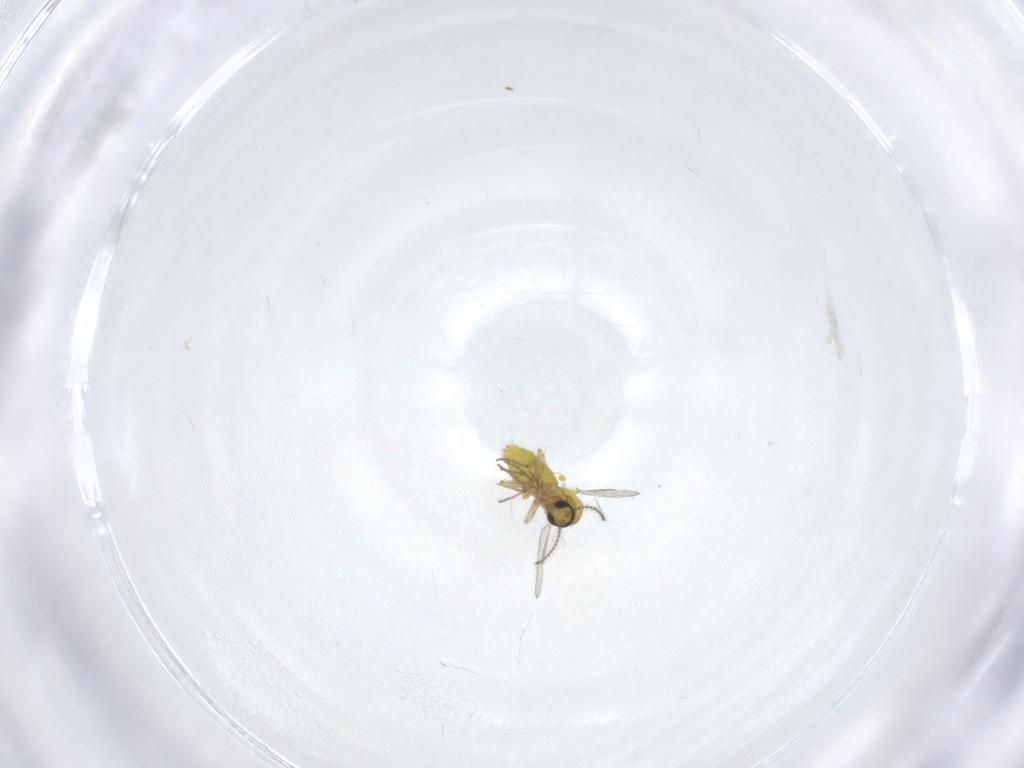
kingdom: Animalia
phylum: Arthropoda
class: Insecta
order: Diptera
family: Ceratopogonidae
